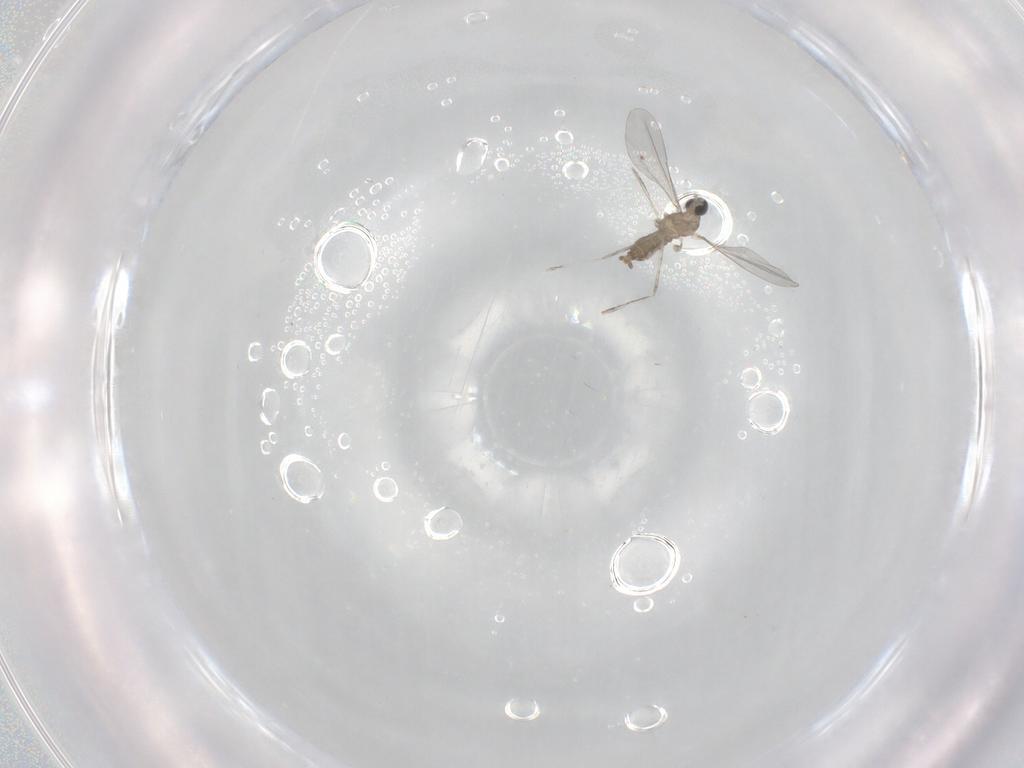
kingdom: Animalia
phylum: Arthropoda
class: Insecta
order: Diptera
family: Cecidomyiidae
